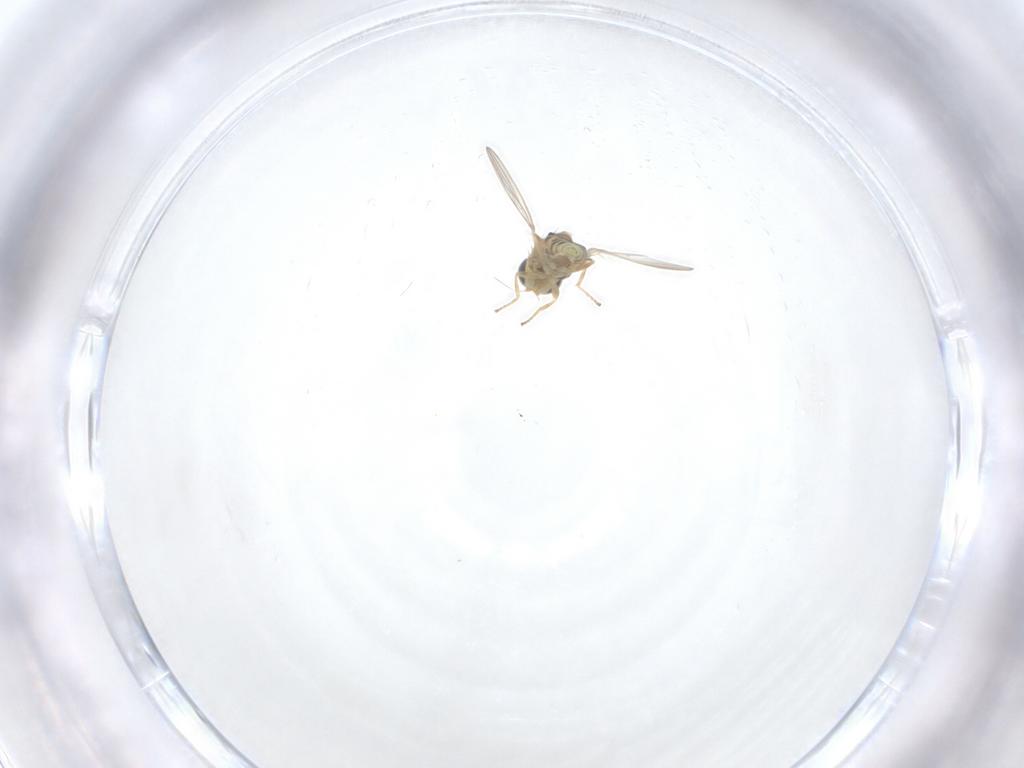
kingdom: Animalia
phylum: Arthropoda
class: Insecta
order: Diptera
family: Chyromyidae
